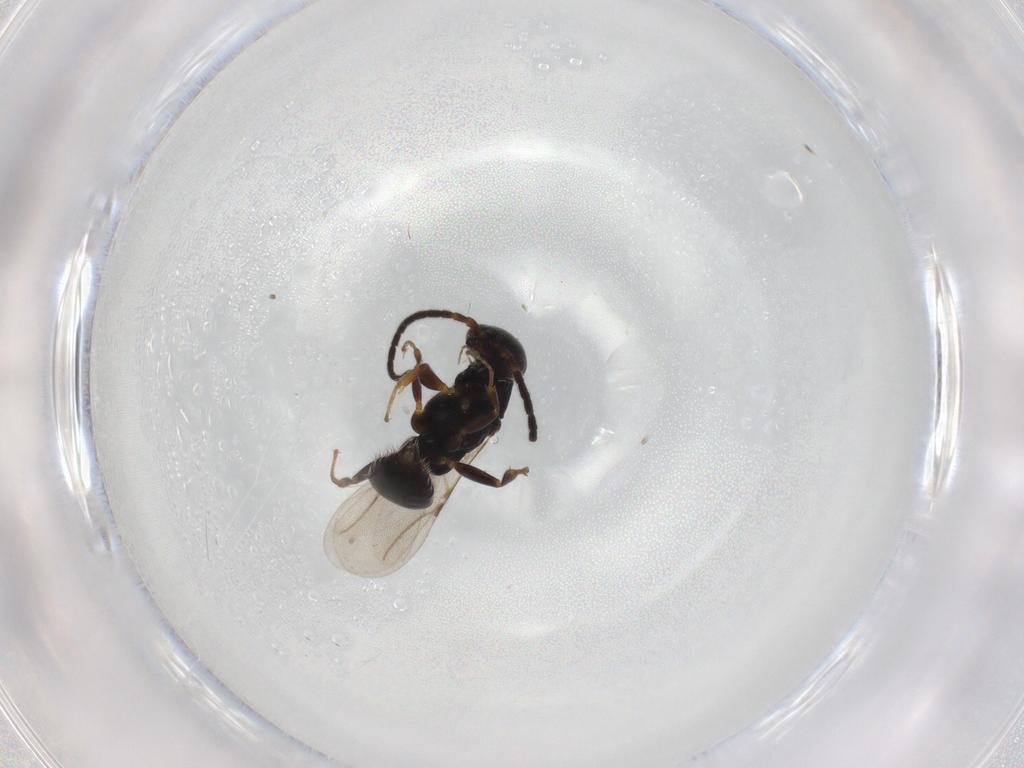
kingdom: Animalia
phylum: Arthropoda
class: Insecta
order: Hymenoptera
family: Bethylidae
